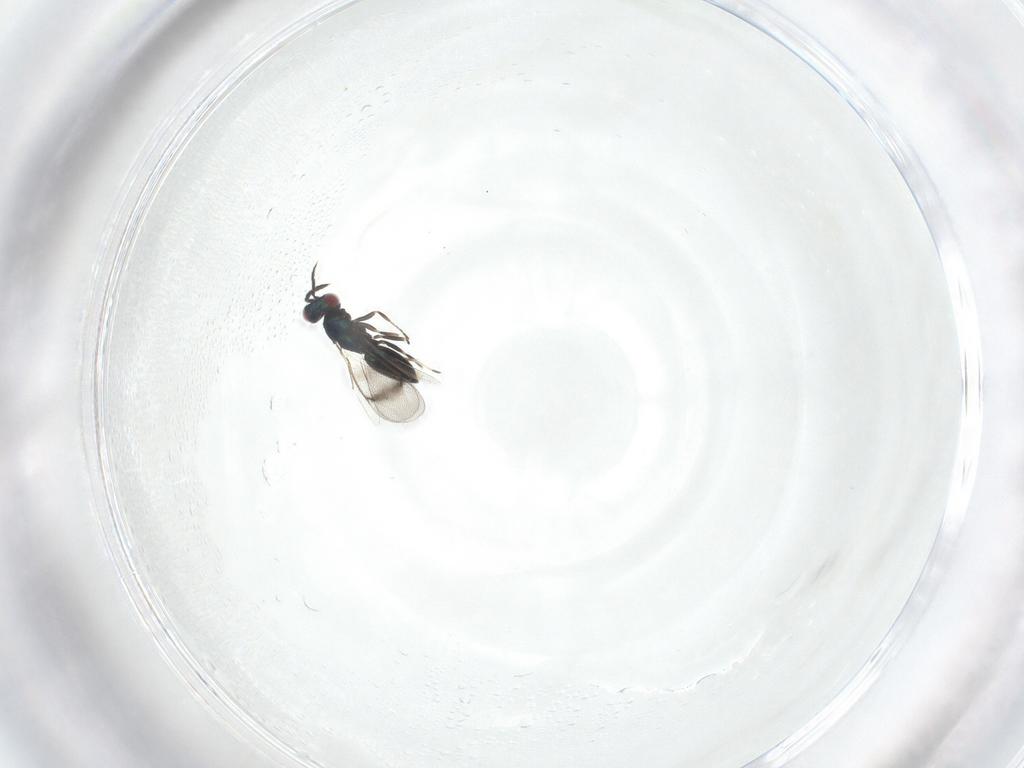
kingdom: Animalia
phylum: Arthropoda
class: Insecta
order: Hymenoptera
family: Eulophidae
